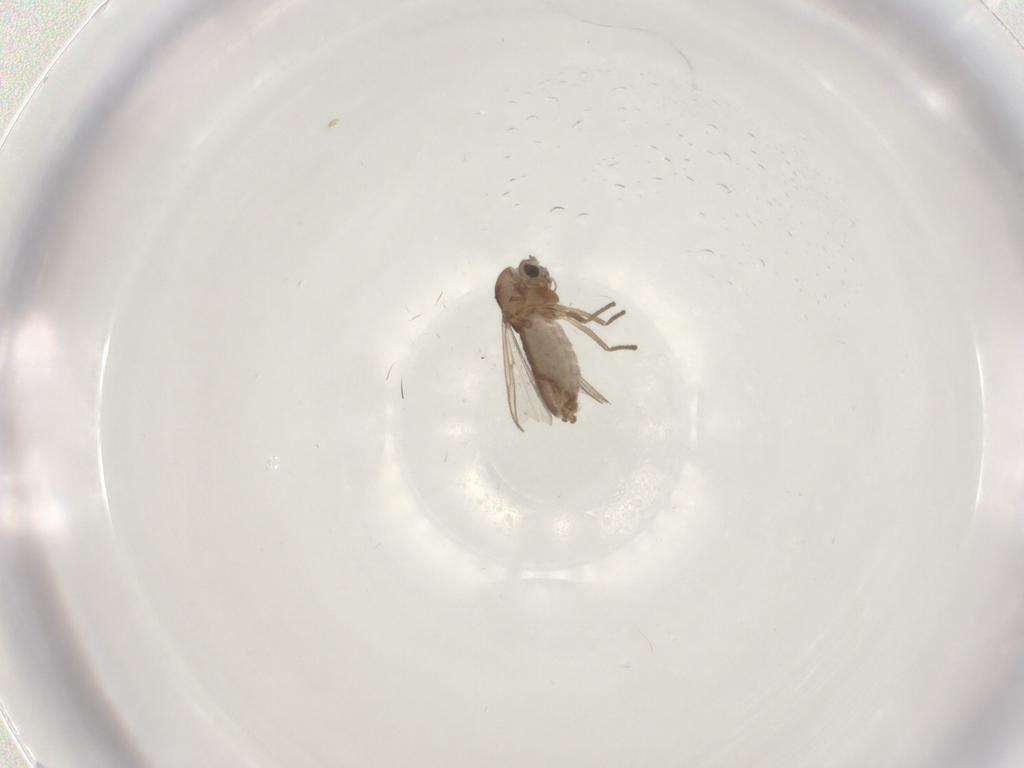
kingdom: Animalia
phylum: Arthropoda
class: Insecta
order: Diptera
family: Chironomidae
